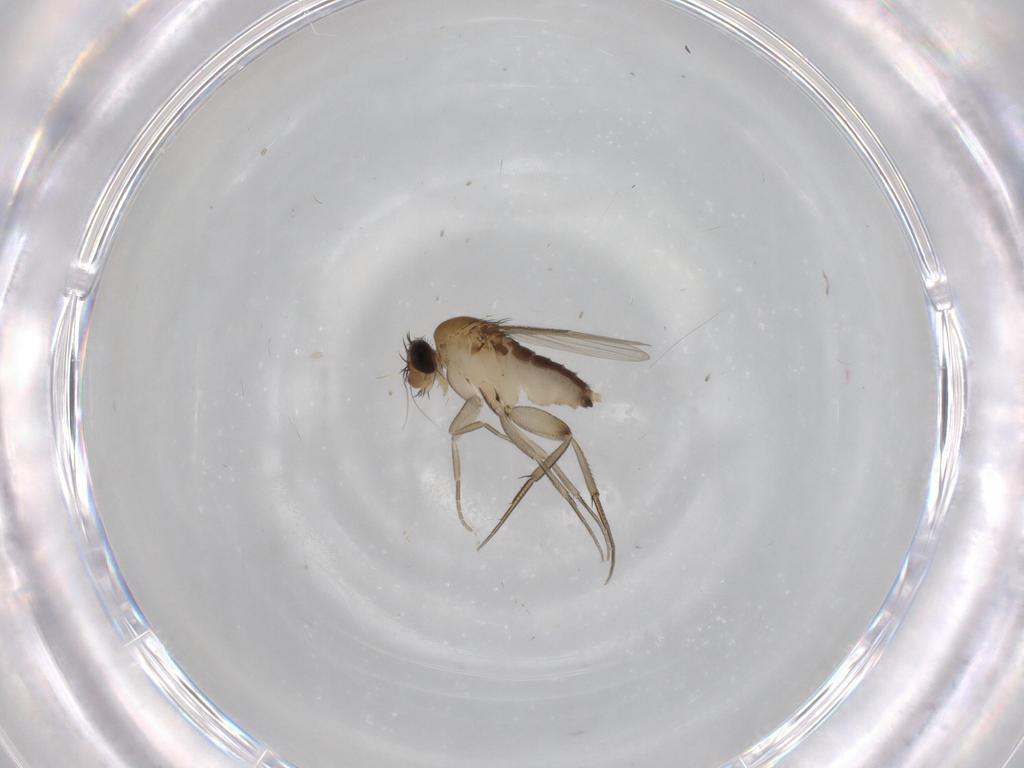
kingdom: Animalia
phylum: Arthropoda
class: Insecta
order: Diptera
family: Phoridae
